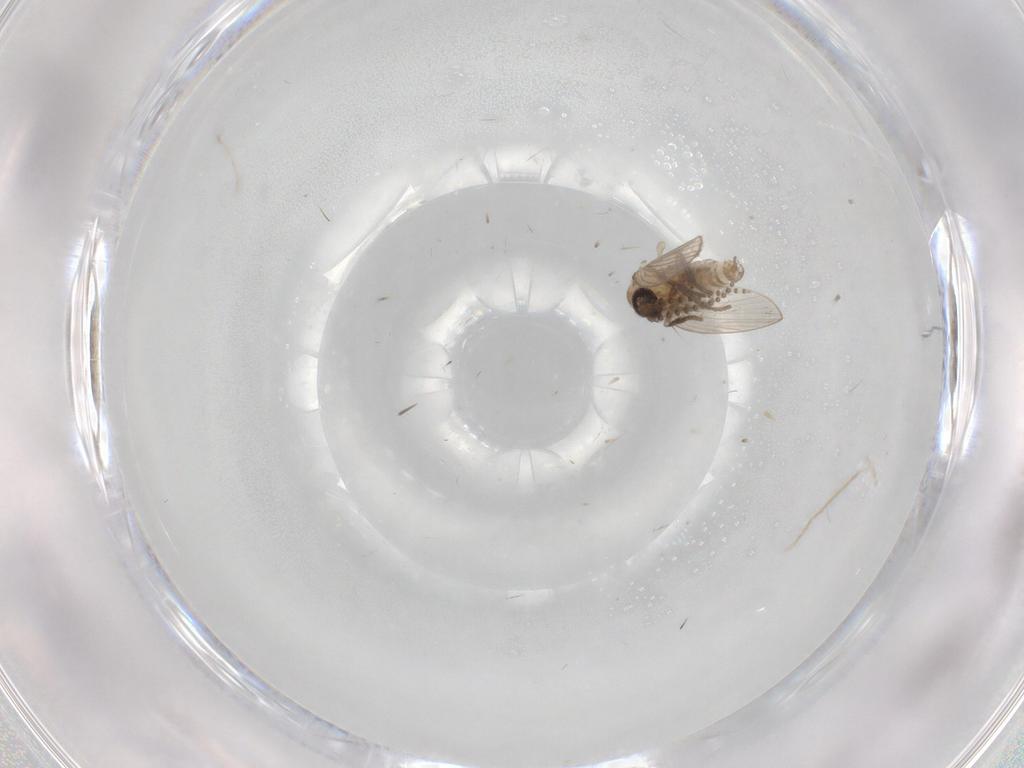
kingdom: Animalia
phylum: Arthropoda
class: Insecta
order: Diptera
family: Psychodidae
